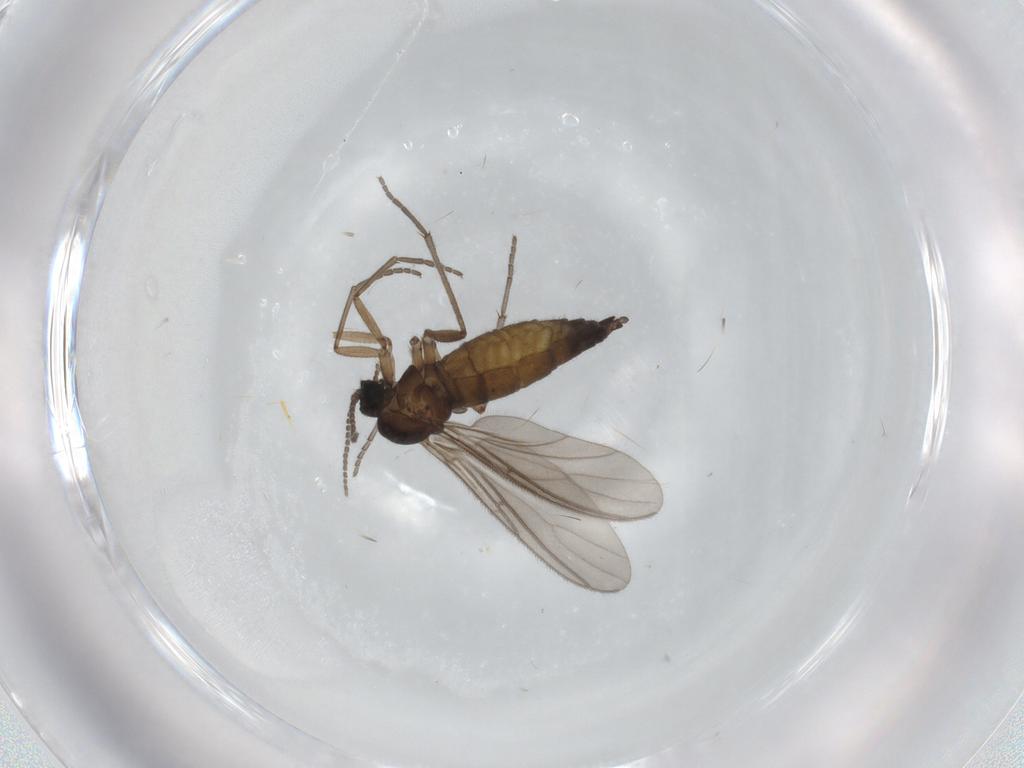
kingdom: Animalia
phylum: Arthropoda
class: Insecta
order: Diptera
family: Sciaridae
